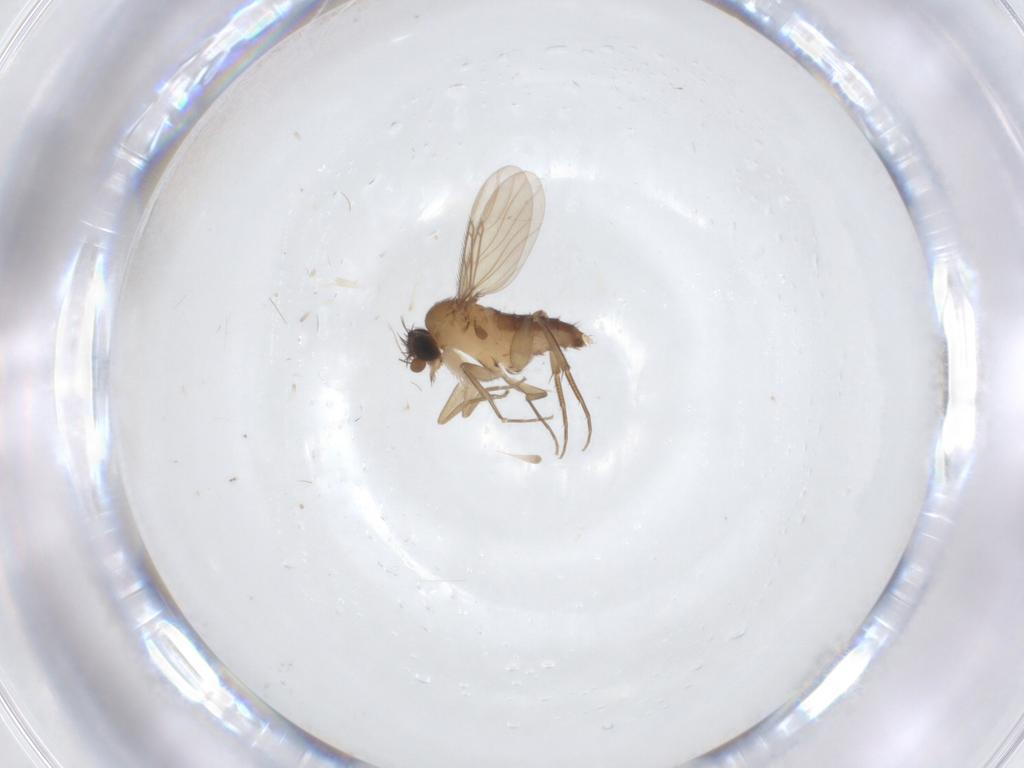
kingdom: Animalia
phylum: Arthropoda
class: Insecta
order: Diptera
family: Phoridae
